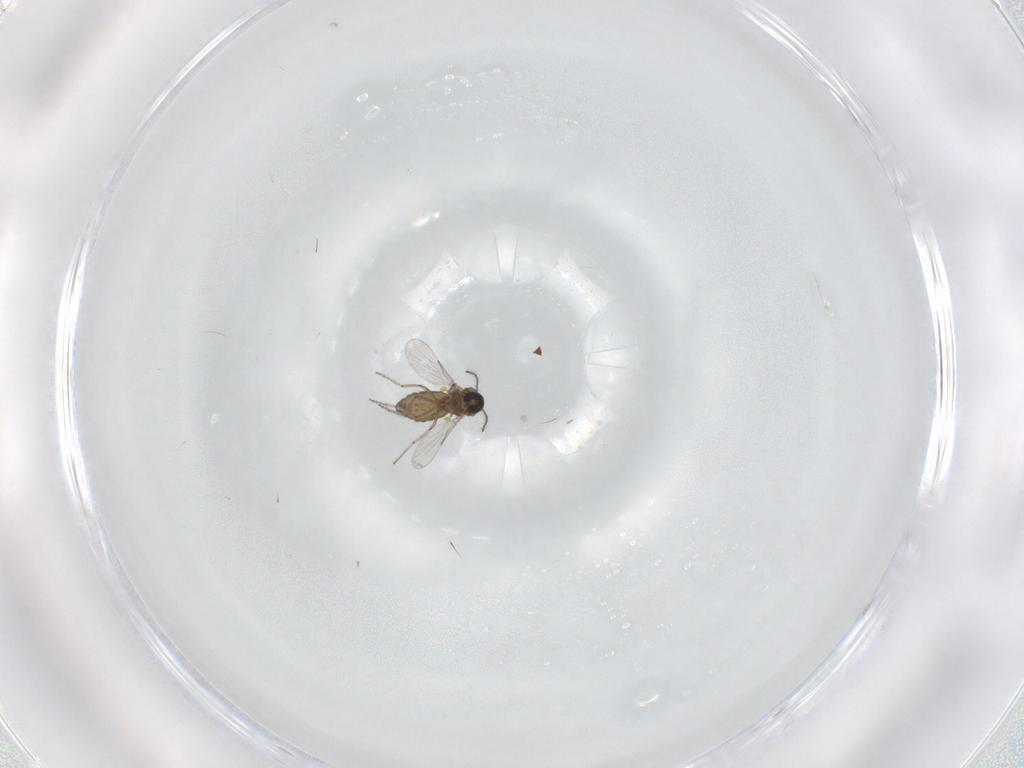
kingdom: Animalia
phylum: Arthropoda
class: Insecta
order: Diptera
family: Ceratopogonidae
